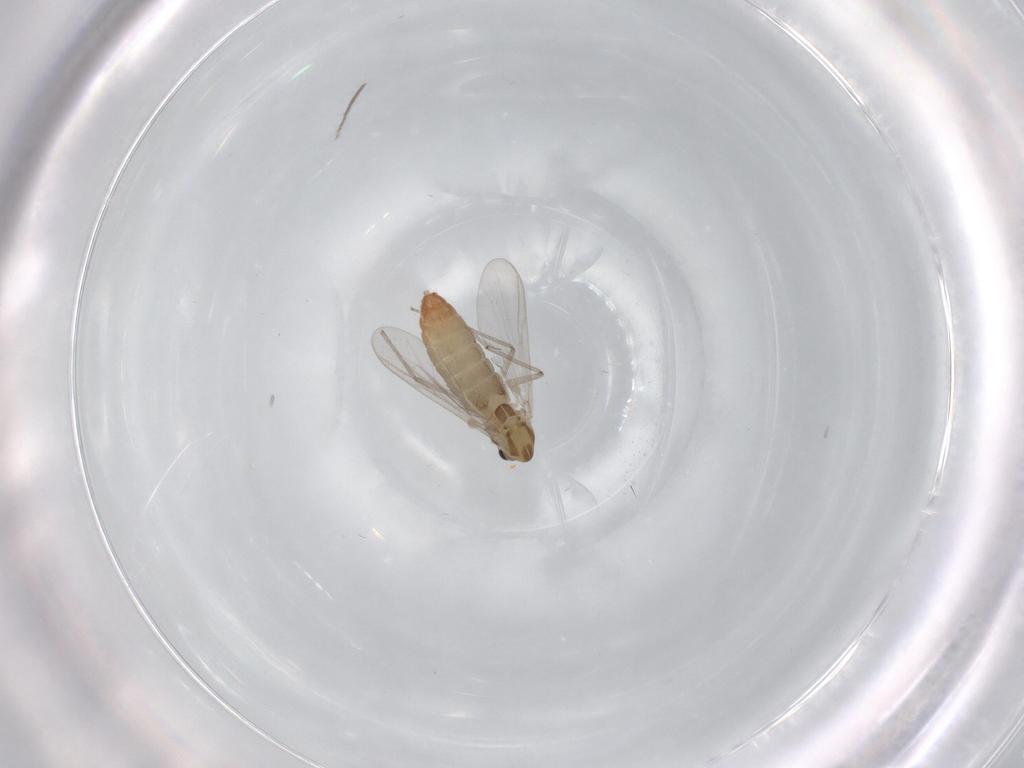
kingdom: Animalia
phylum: Arthropoda
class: Insecta
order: Diptera
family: Chironomidae
